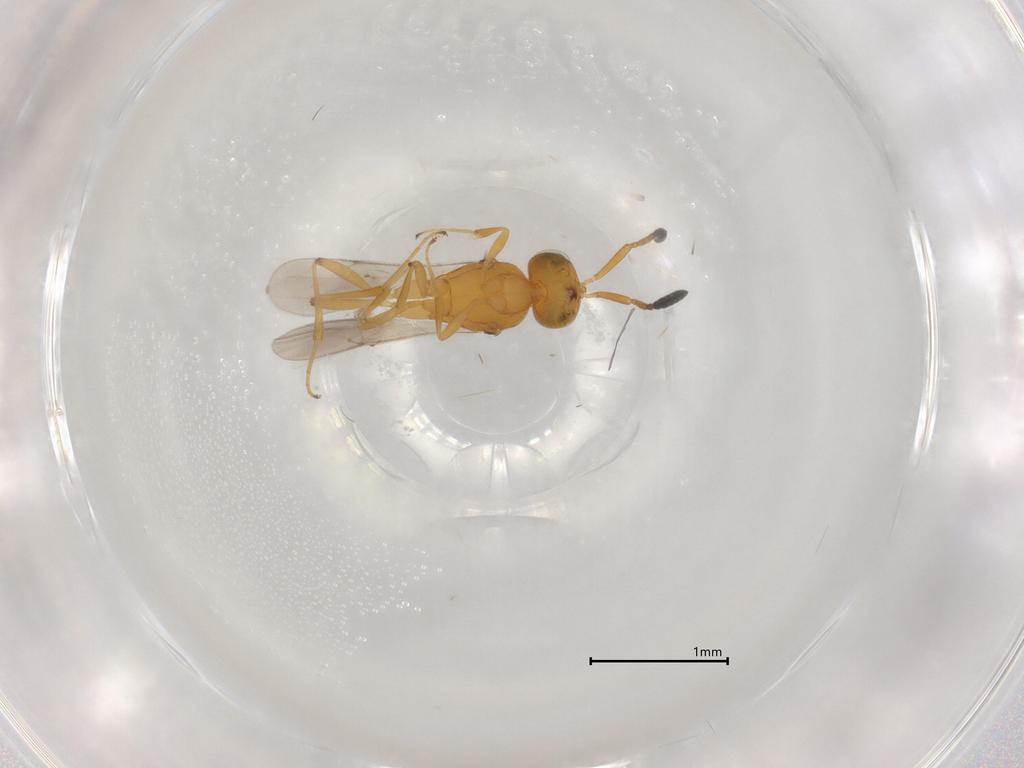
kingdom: Animalia
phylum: Arthropoda
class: Insecta
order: Hymenoptera
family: Scelionidae
